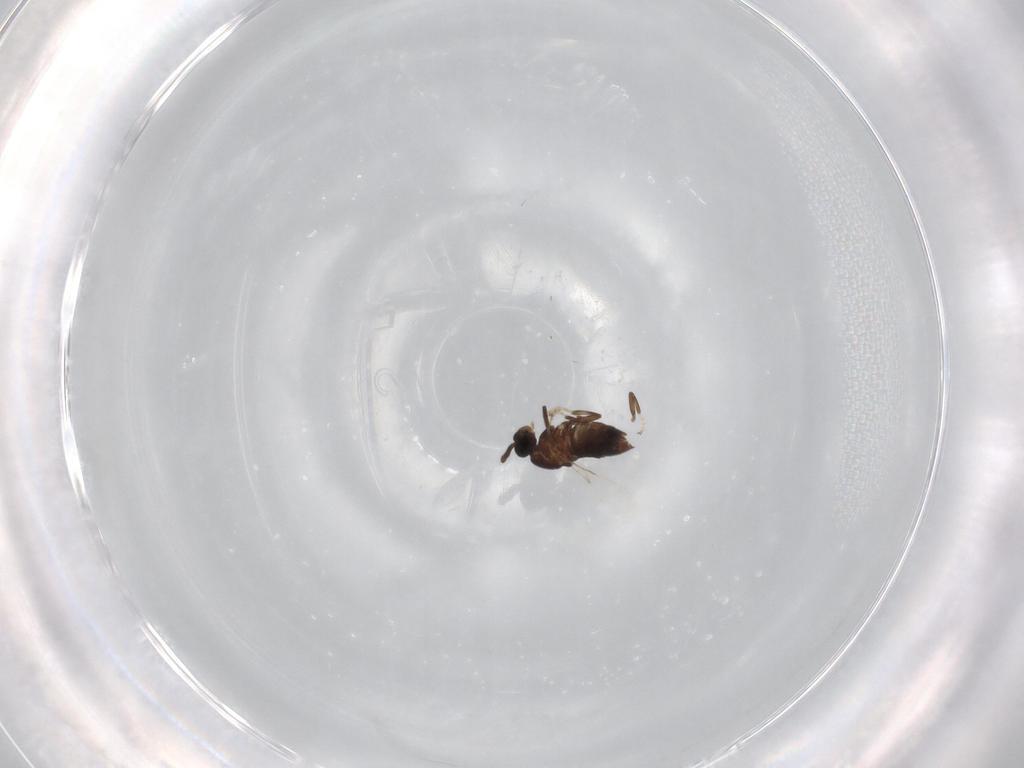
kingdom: Animalia
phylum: Arthropoda
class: Insecta
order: Diptera
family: Scatopsidae
